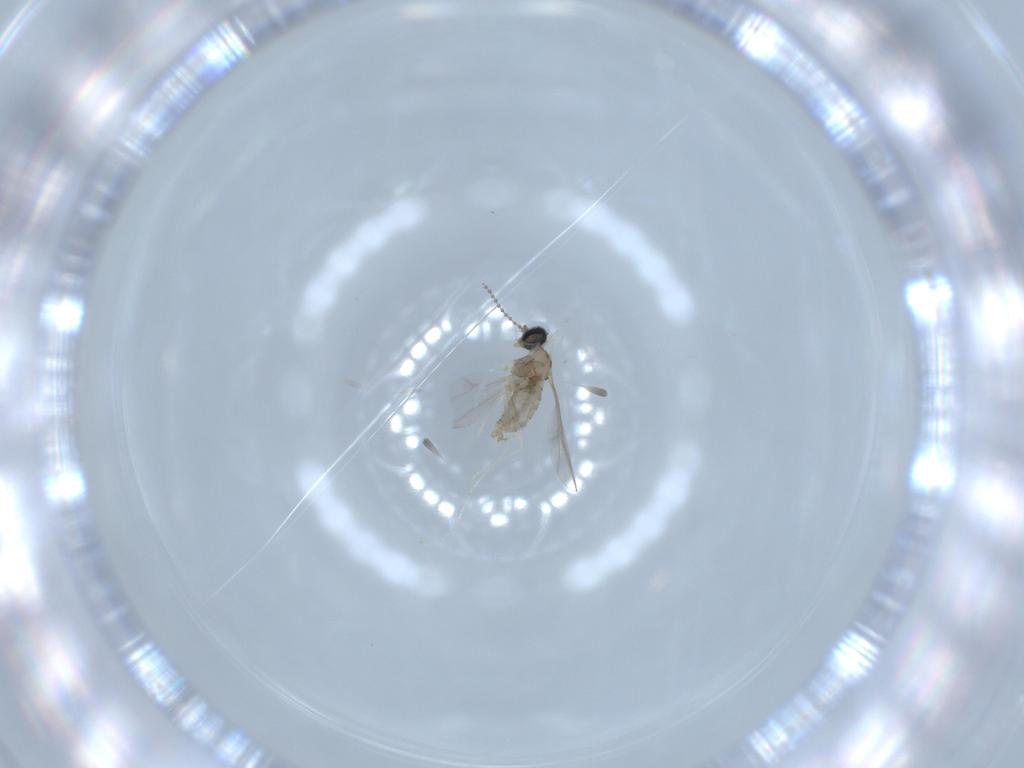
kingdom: Animalia
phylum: Arthropoda
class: Insecta
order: Diptera
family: Cecidomyiidae
